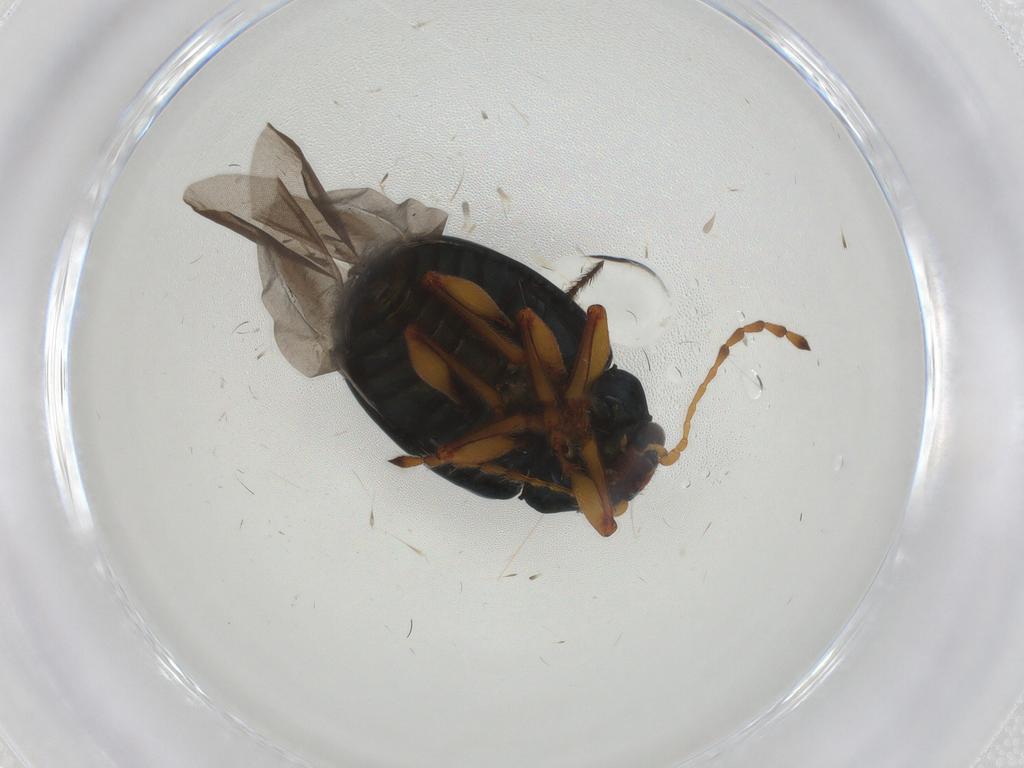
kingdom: Animalia
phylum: Arthropoda
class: Insecta
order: Coleoptera
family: Chrysomelidae
